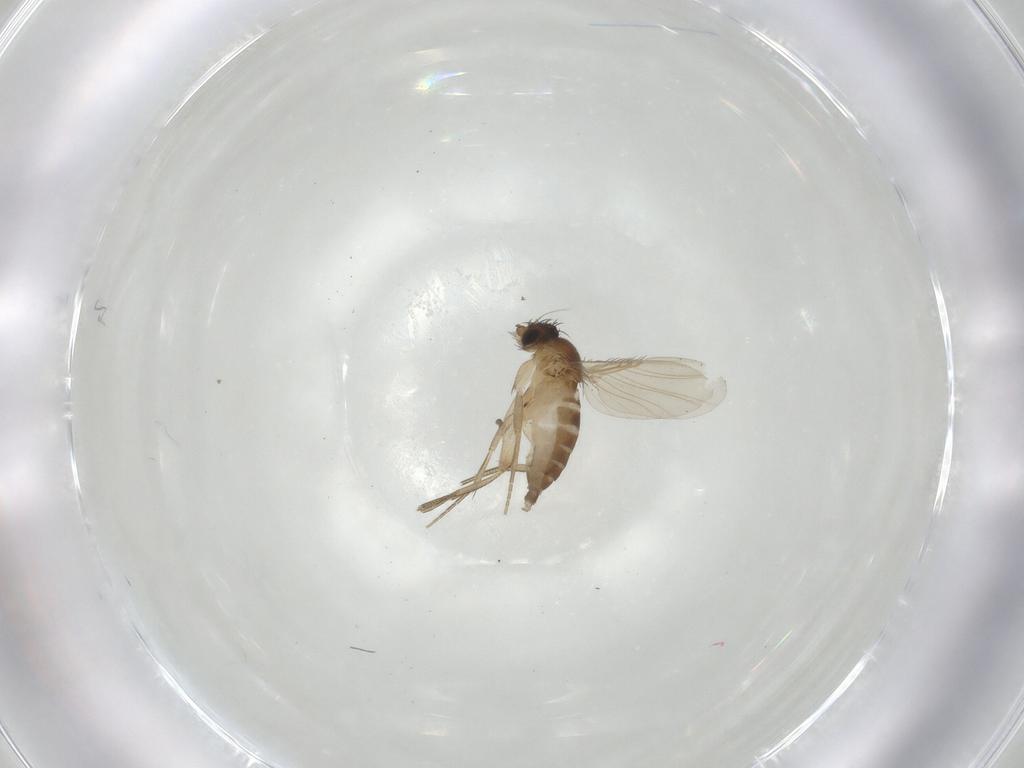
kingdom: Animalia
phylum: Arthropoda
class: Insecta
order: Diptera
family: Phoridae
